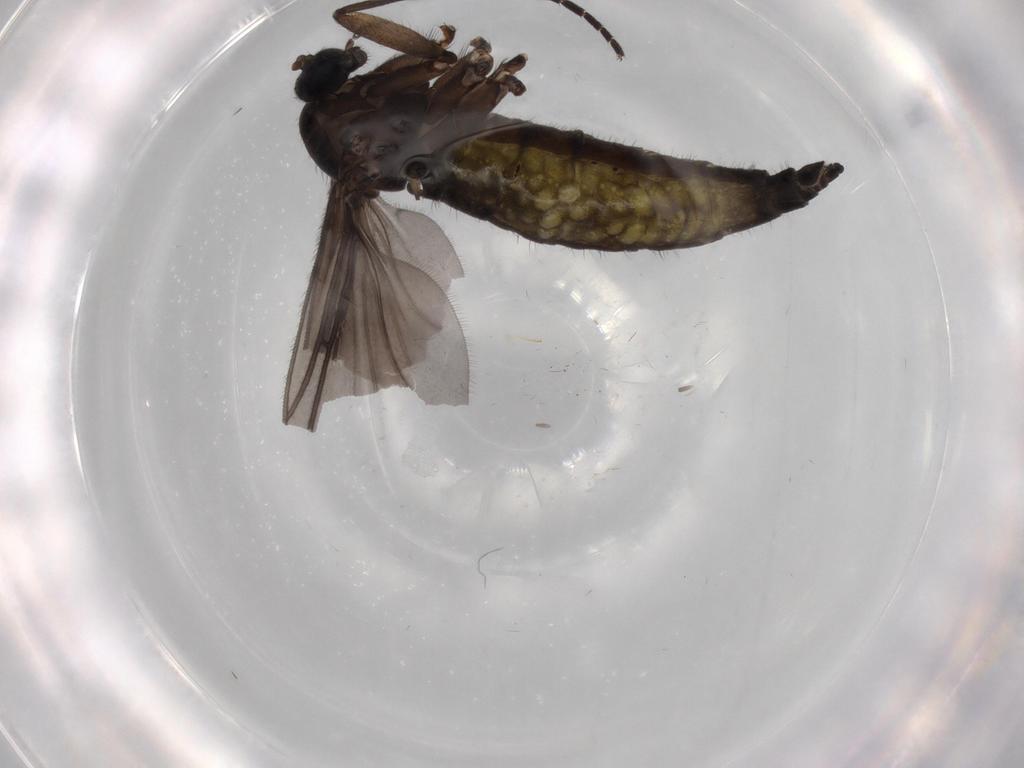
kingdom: Animalia
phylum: Arthropoda
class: Insecta
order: Diptera
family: Sciaridae
